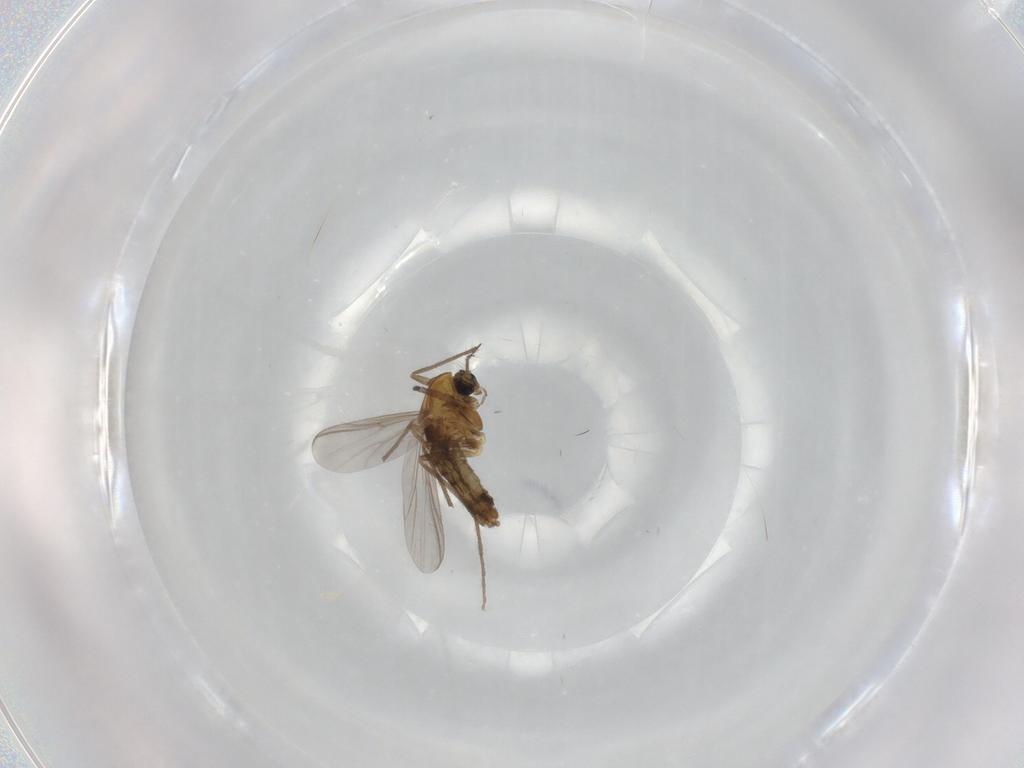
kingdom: Animalia
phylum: Arthropoda
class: Insecta
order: Diptera
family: Chironomidae
